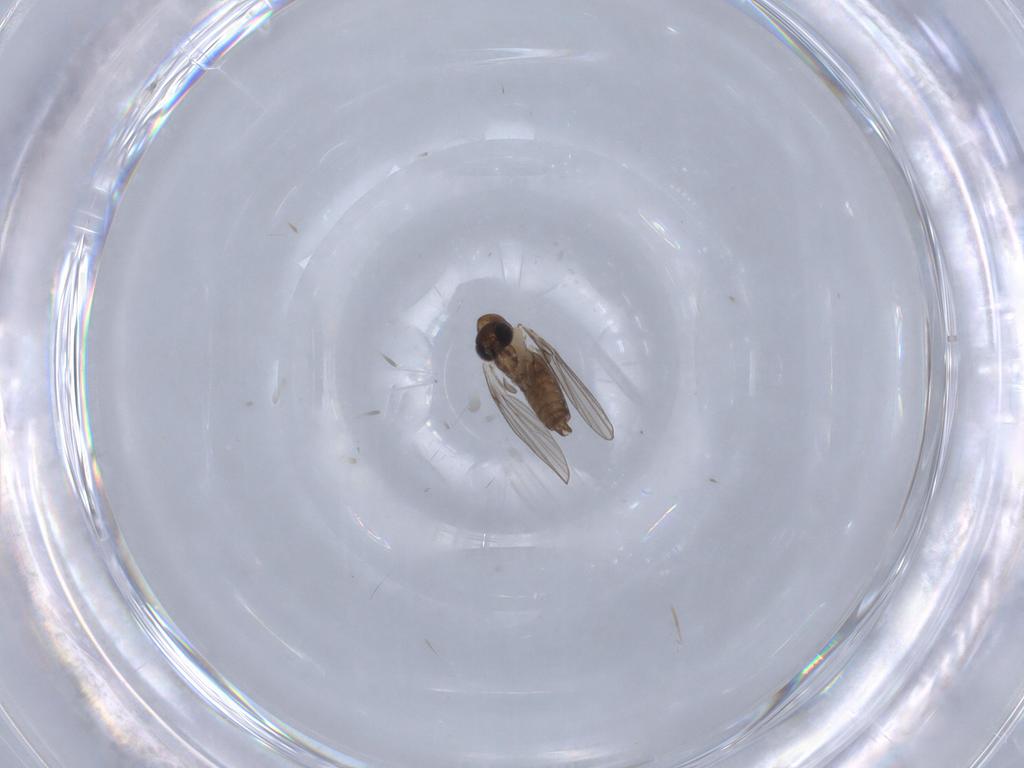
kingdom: Animalia
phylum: Arthropoda
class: Insecta
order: Diptera
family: Psychodidae
